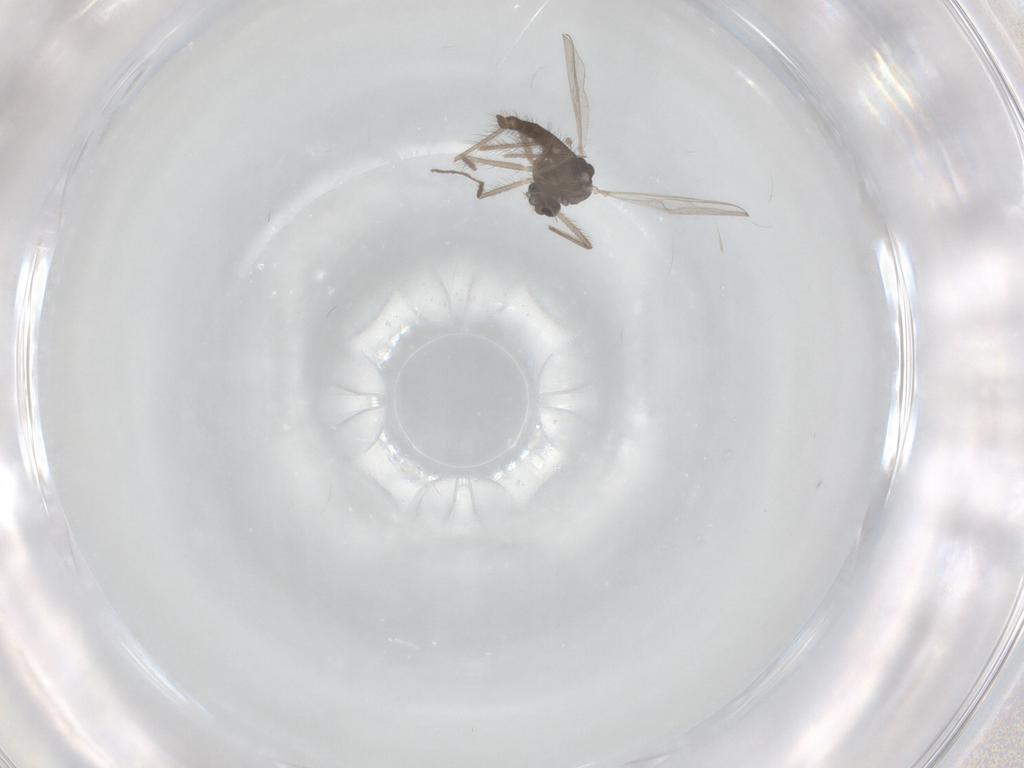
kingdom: Animalia
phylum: Arthropoda
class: Insecta
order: Diptera
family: Chironomidae
